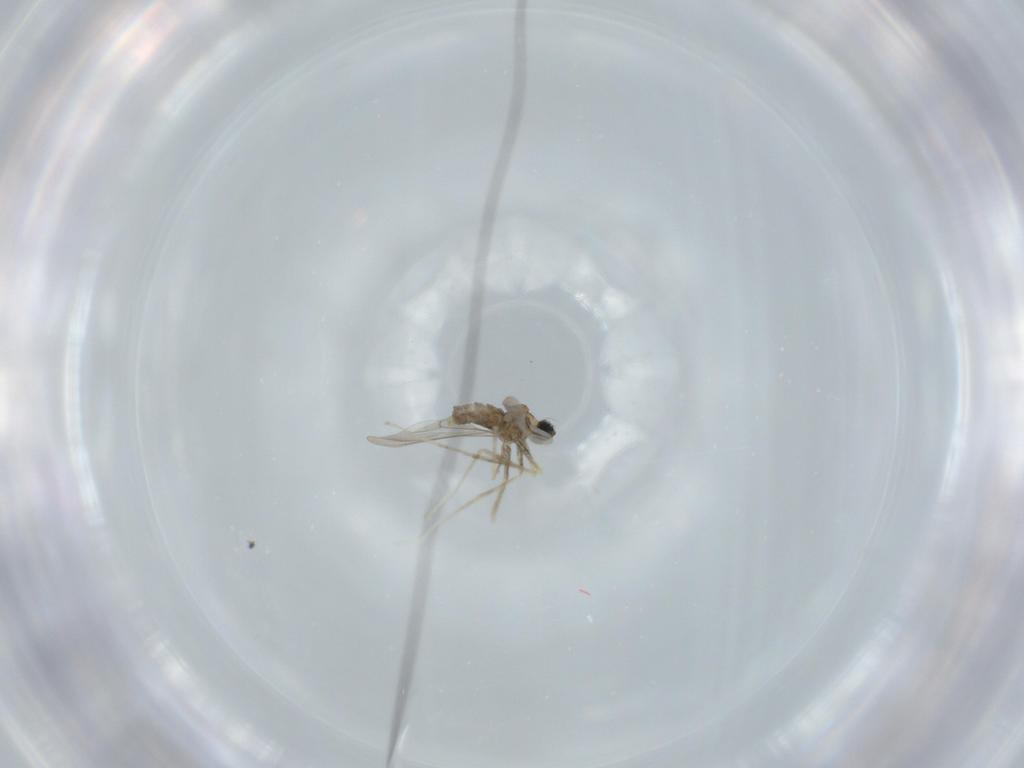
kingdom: Animalia
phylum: Arthropoda
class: Insecta
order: Diptera
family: Cecidomyiidae
